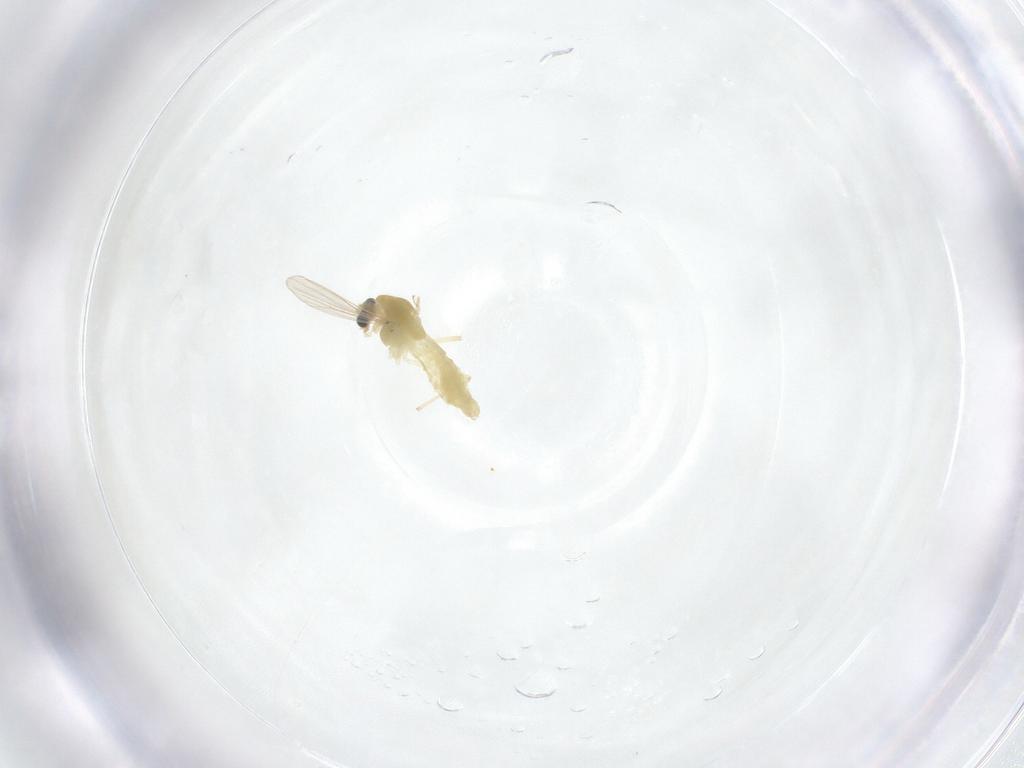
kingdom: Animalia
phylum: Arthropoda
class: Insecta
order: Diptera
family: Chironomidae
